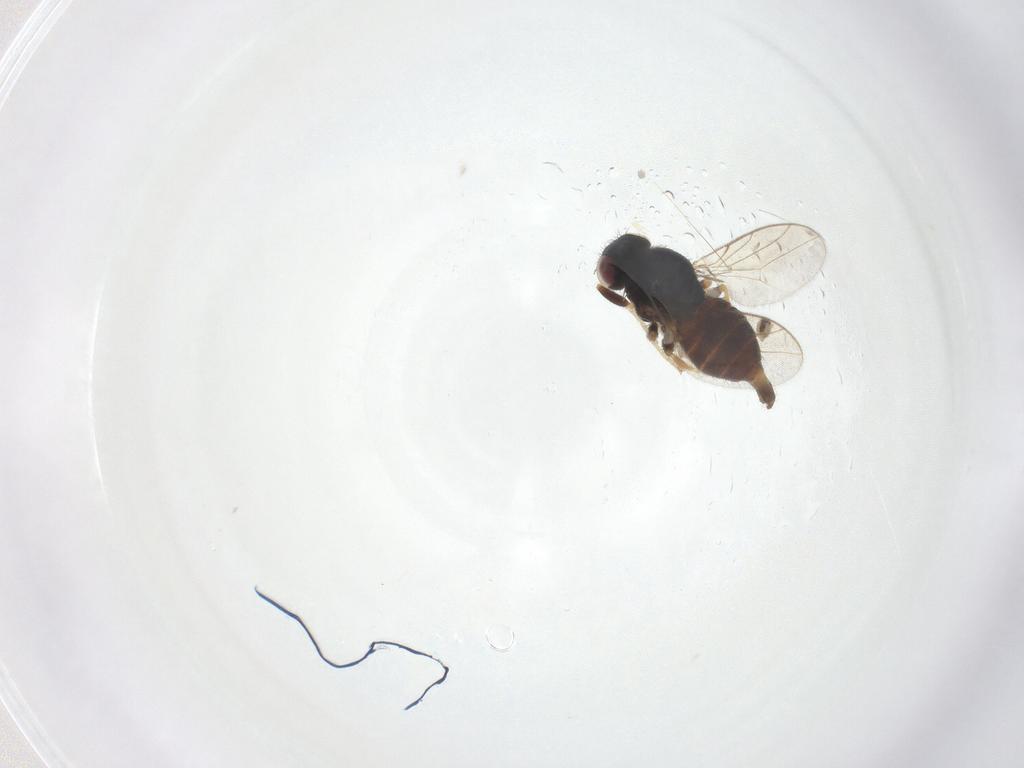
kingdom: Animalia
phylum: Arthropoda
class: Insecta
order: Diptera
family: Chloropidae
